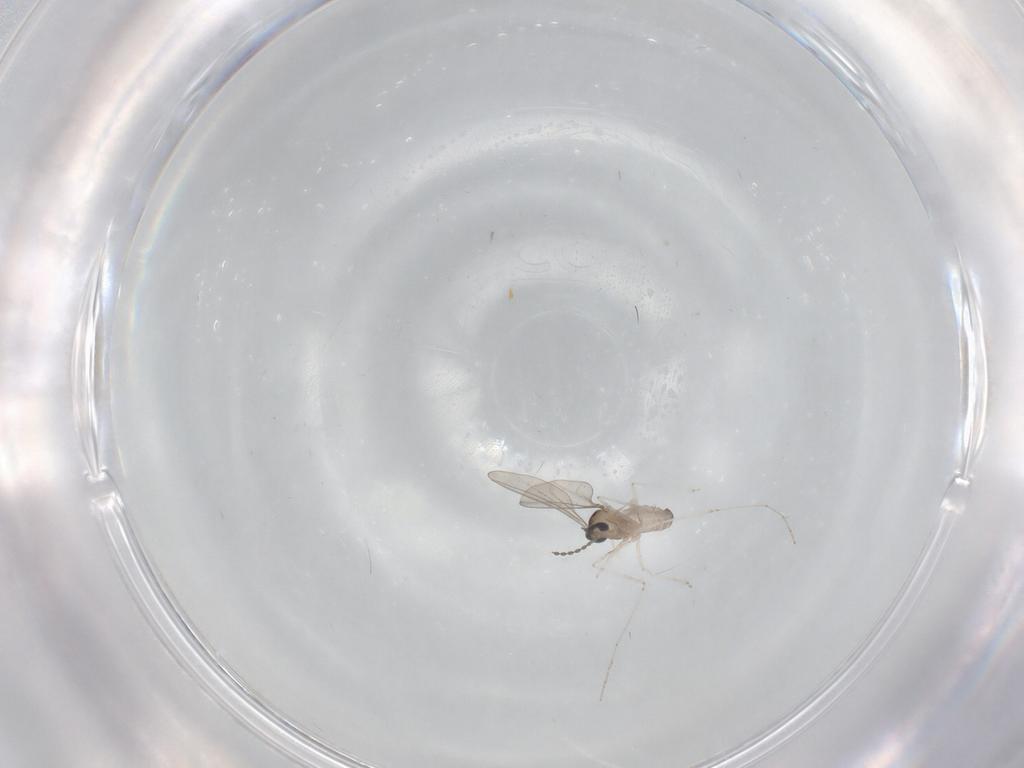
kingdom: Animalia
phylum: Arthropoda
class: Insecta
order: Diptera
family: Cecidomyiidae
